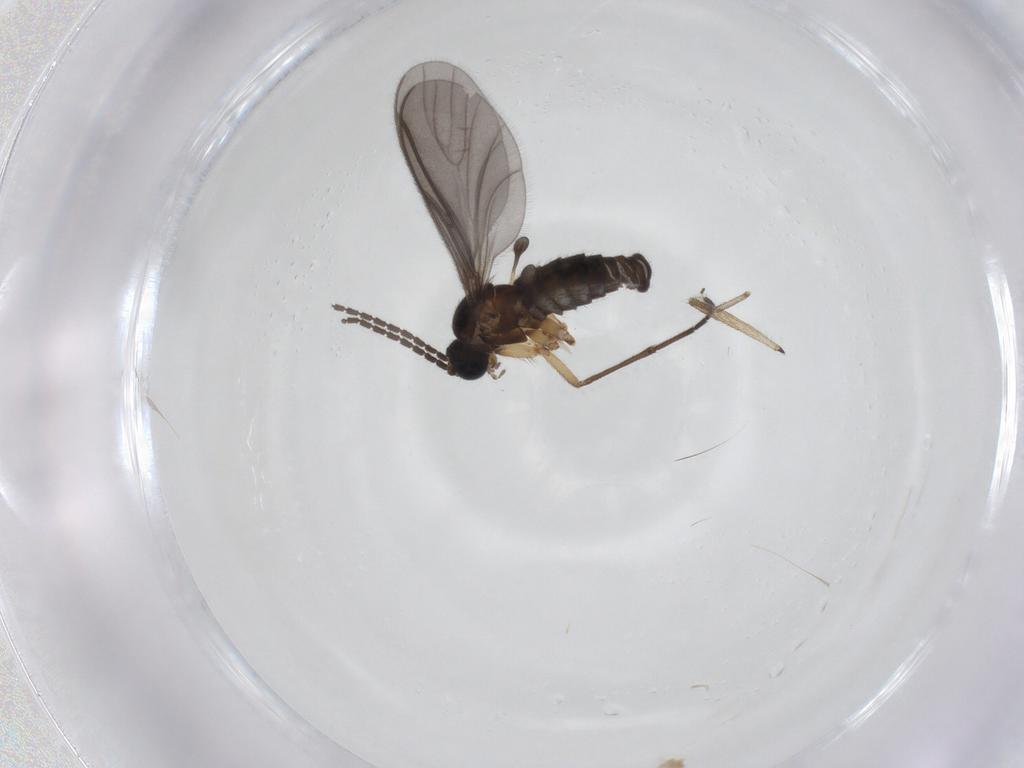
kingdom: Animalia
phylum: Arthropoda
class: Insecta
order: Diptera
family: Sciaridae
